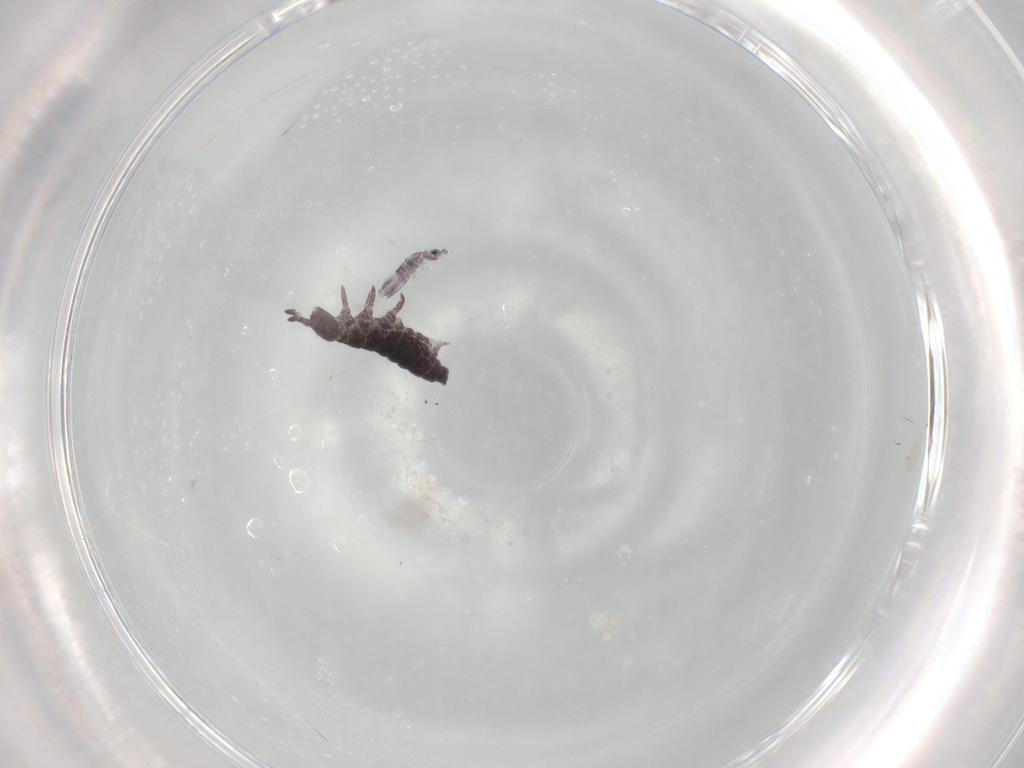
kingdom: Animalia
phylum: Arthropoda
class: Collembola
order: Poduromorpha
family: Hypogastruridae
